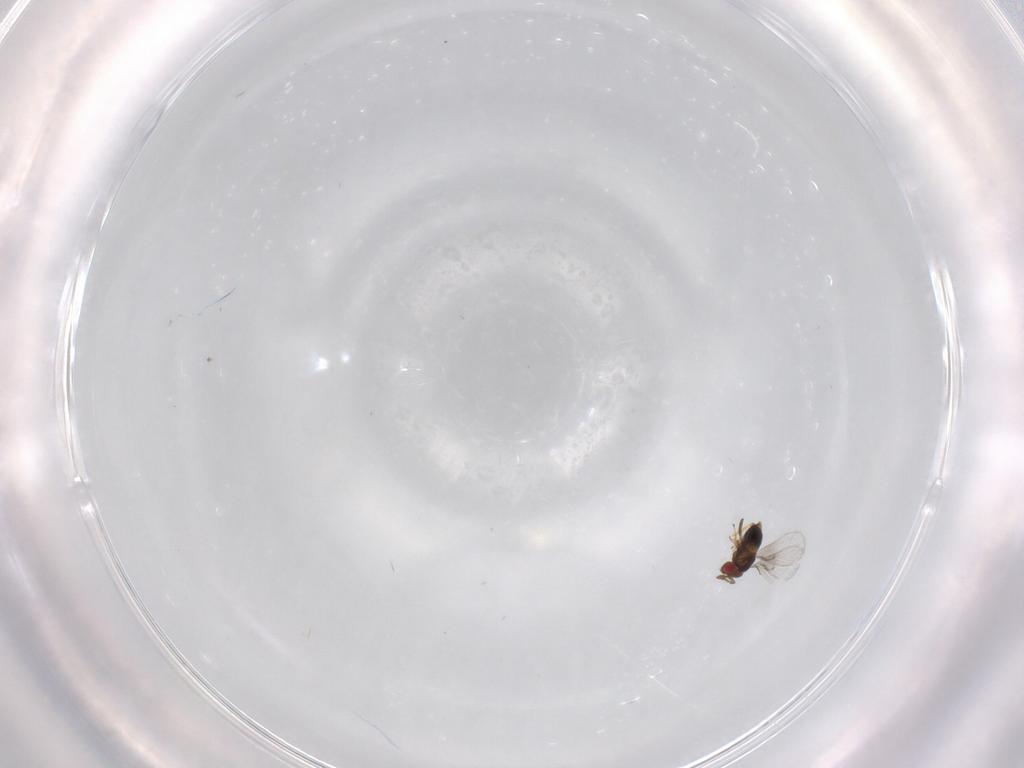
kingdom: Animalia
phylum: Arthropoda
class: Insecta
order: Hymenoptera
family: Trichogrammatidae
